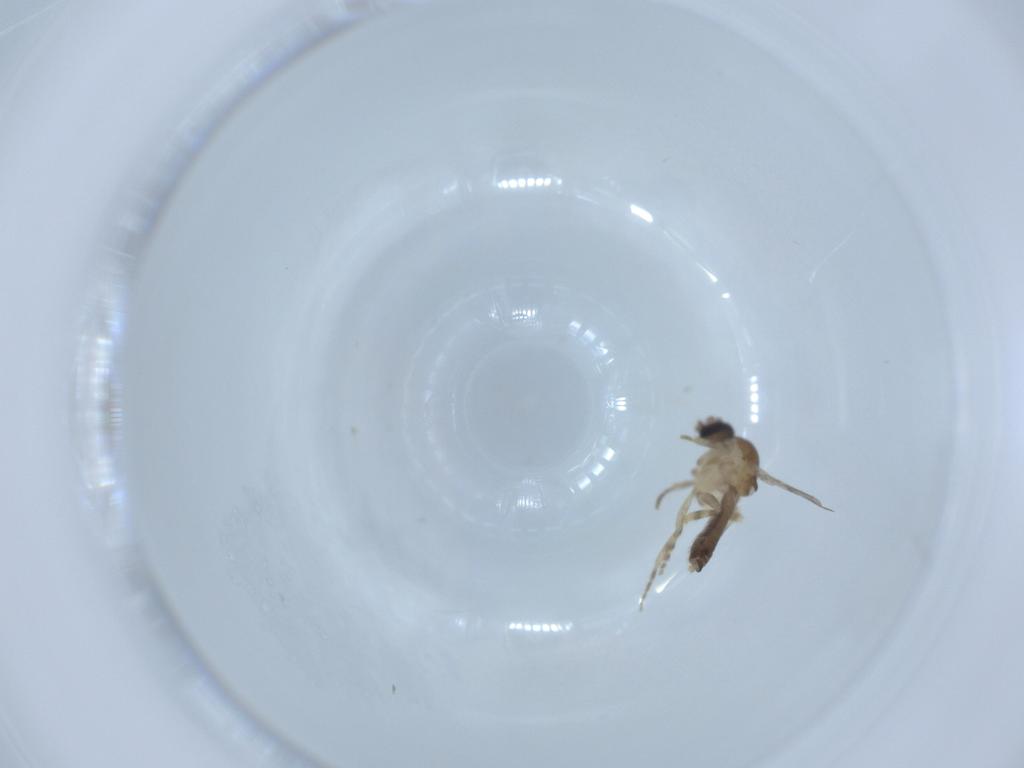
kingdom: Animalia
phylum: Arthropoda
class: Insecta
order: Diptera
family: Ceratopogonidae
